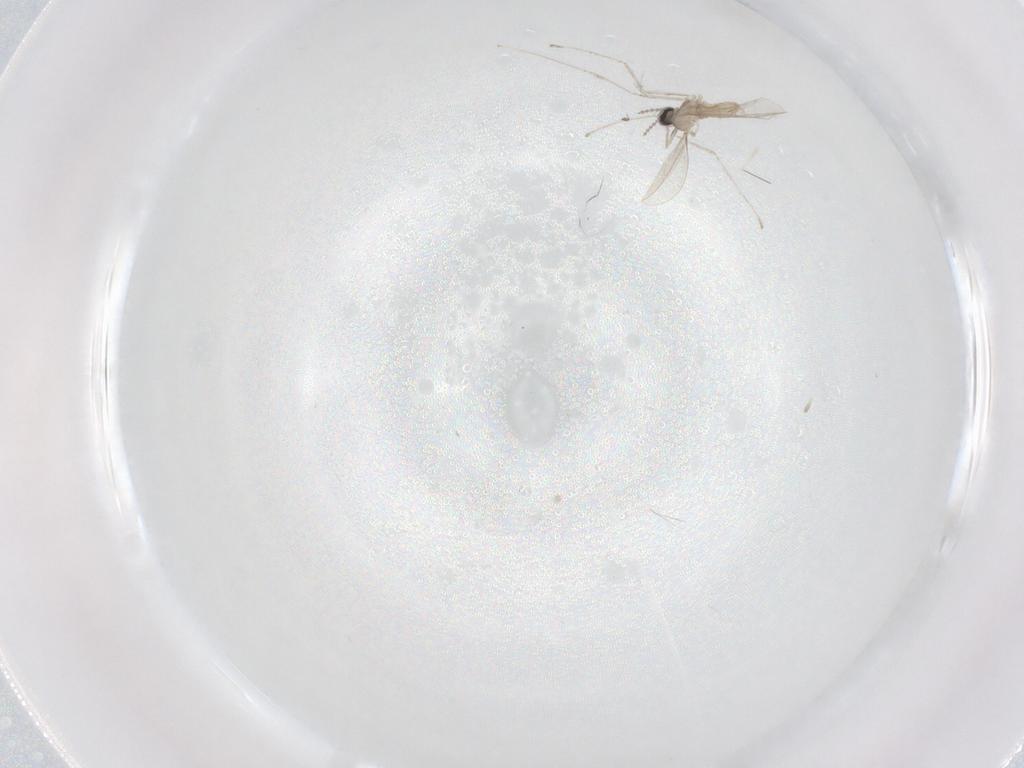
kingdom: Animalia
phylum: Arthropoda
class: Insecta
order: Diptera
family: Cecidomyiidae
